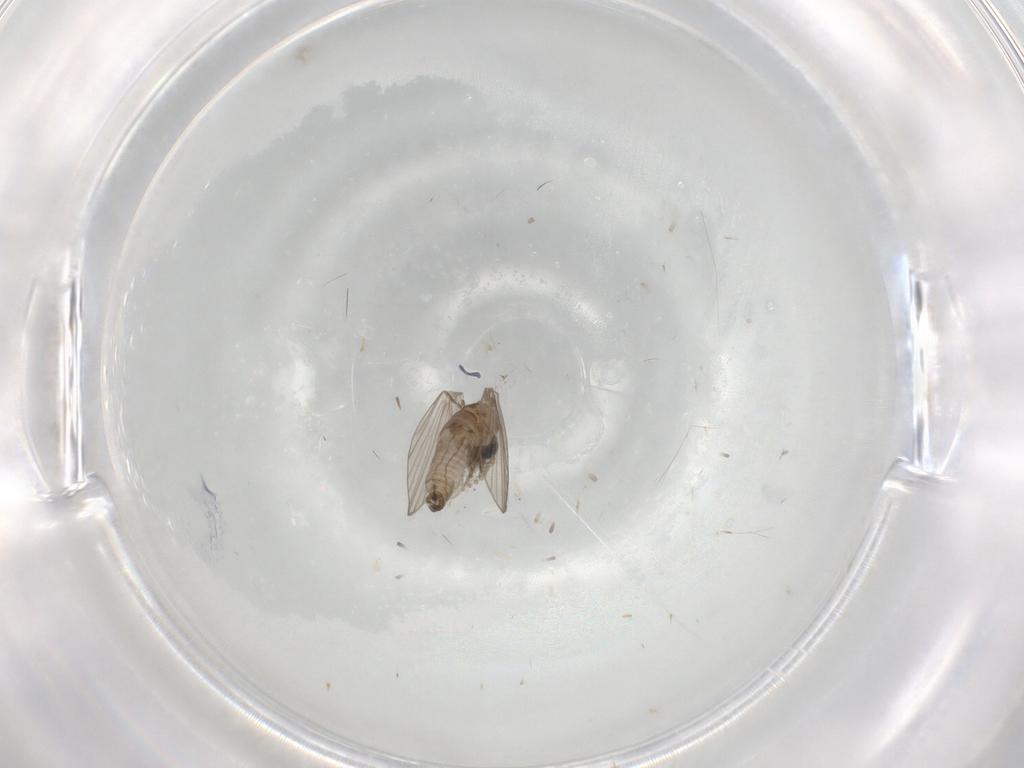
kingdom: Animalia
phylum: Arthropoda
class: Insecta
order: Diptera
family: Psychodidae
